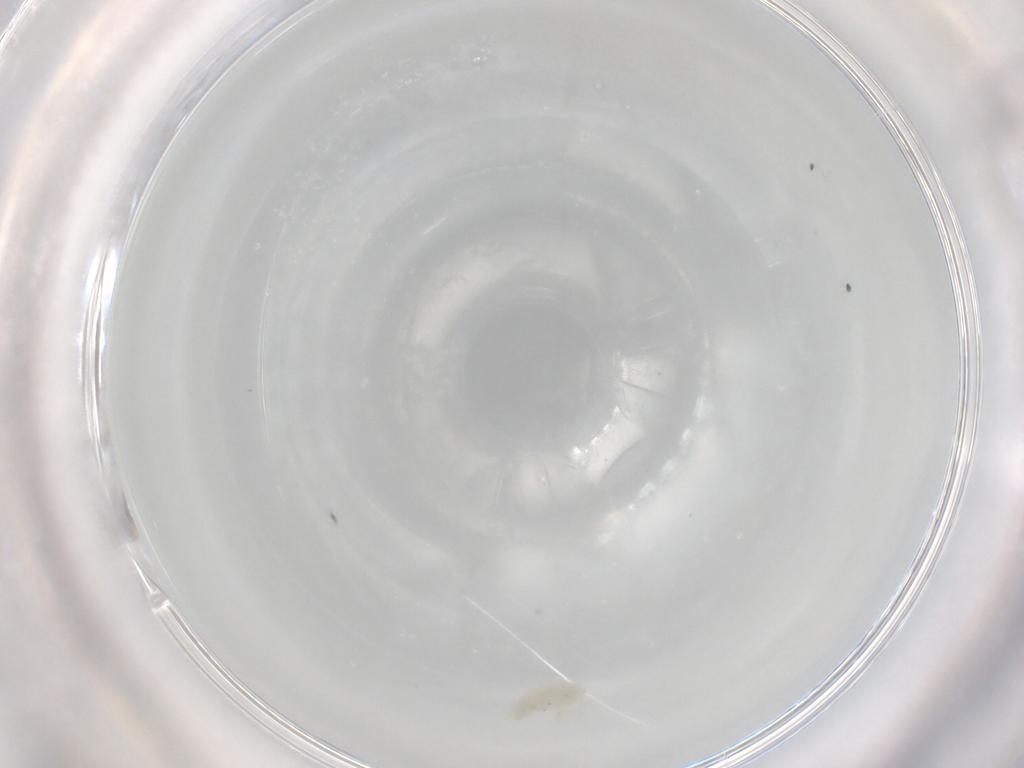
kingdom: Animalia
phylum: Arthropoda
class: Arachnida
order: Trombidiformes
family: Rhagidiidae
